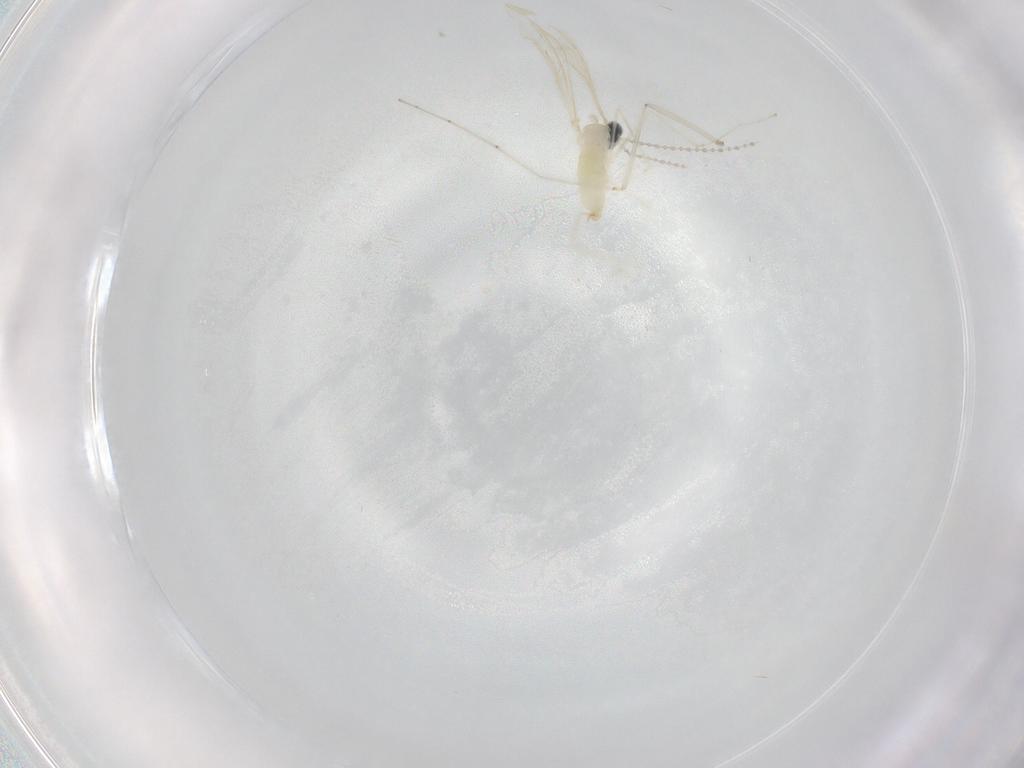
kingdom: Animalia
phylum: Arthropoda
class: Insecta
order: Diptera
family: Cecidomyiidae
